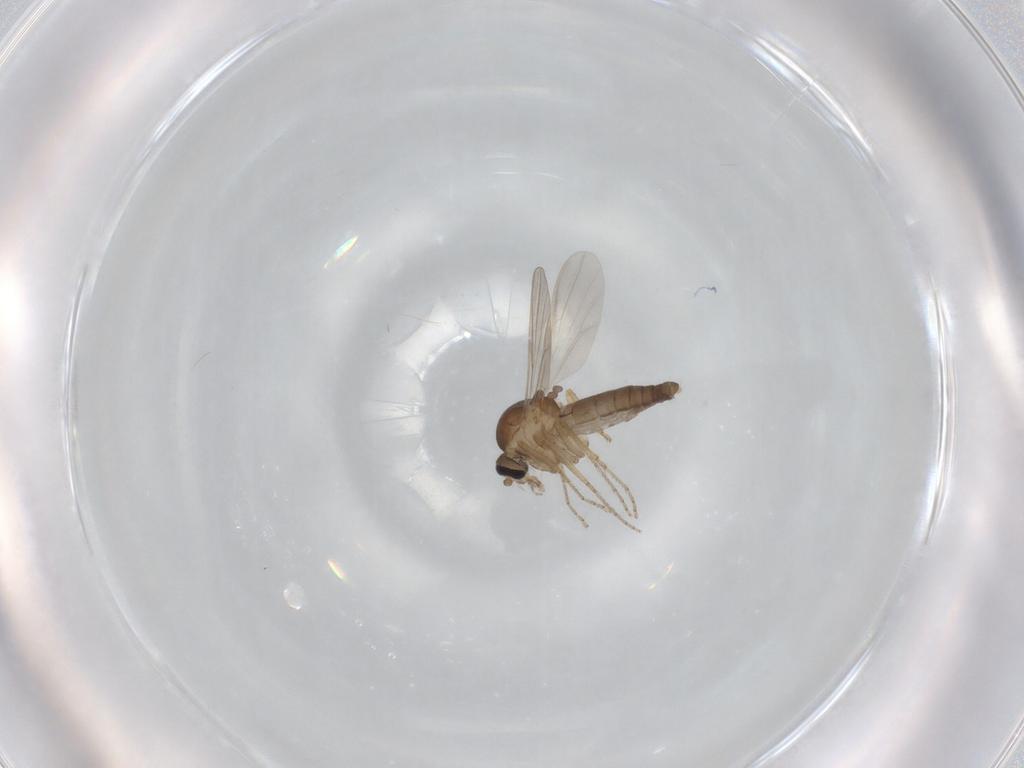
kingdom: Animalia
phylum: Arthropoda
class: Insecta
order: Diptera
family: Ceratopogonidae
